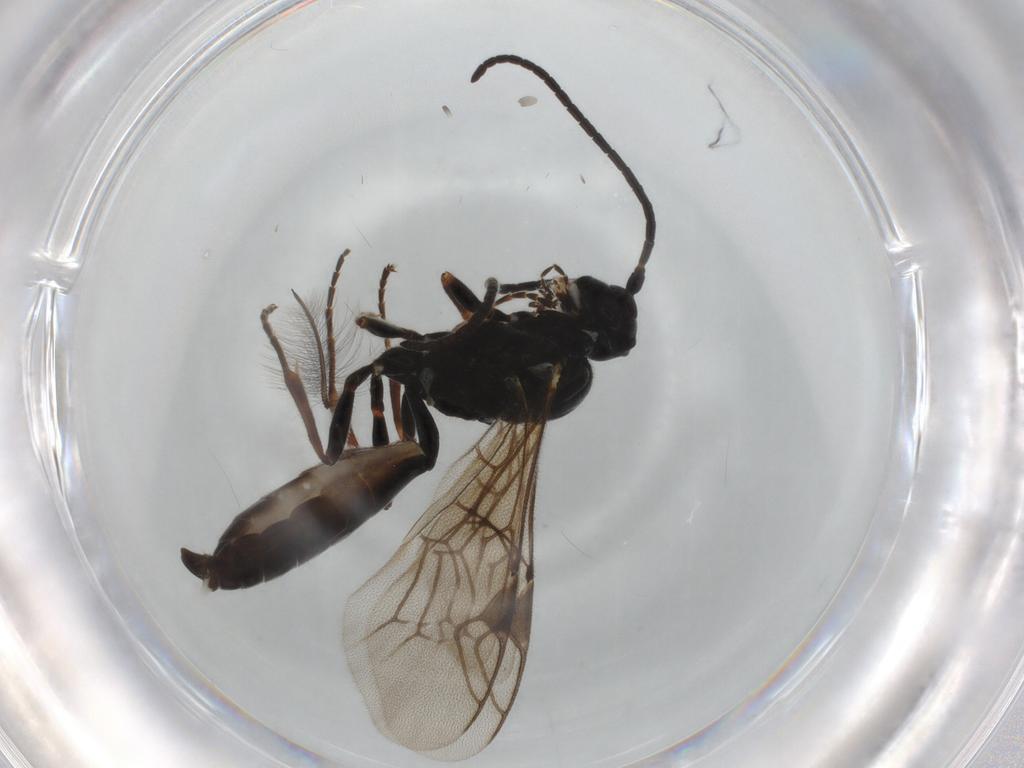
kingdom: Animalia
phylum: Arthropoda
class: Insecta
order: Hymenoptera
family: Ichneumonidae
